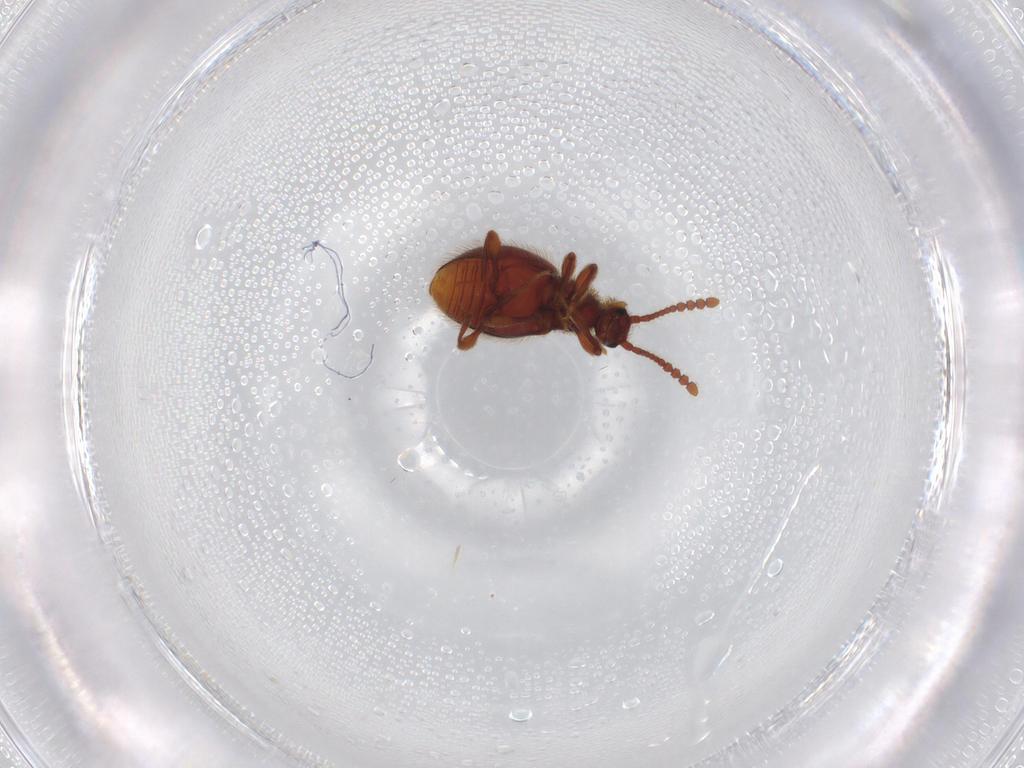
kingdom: Animalia
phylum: Arthropoda
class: Insecta
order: Coleoptera
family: Staphylinidae
